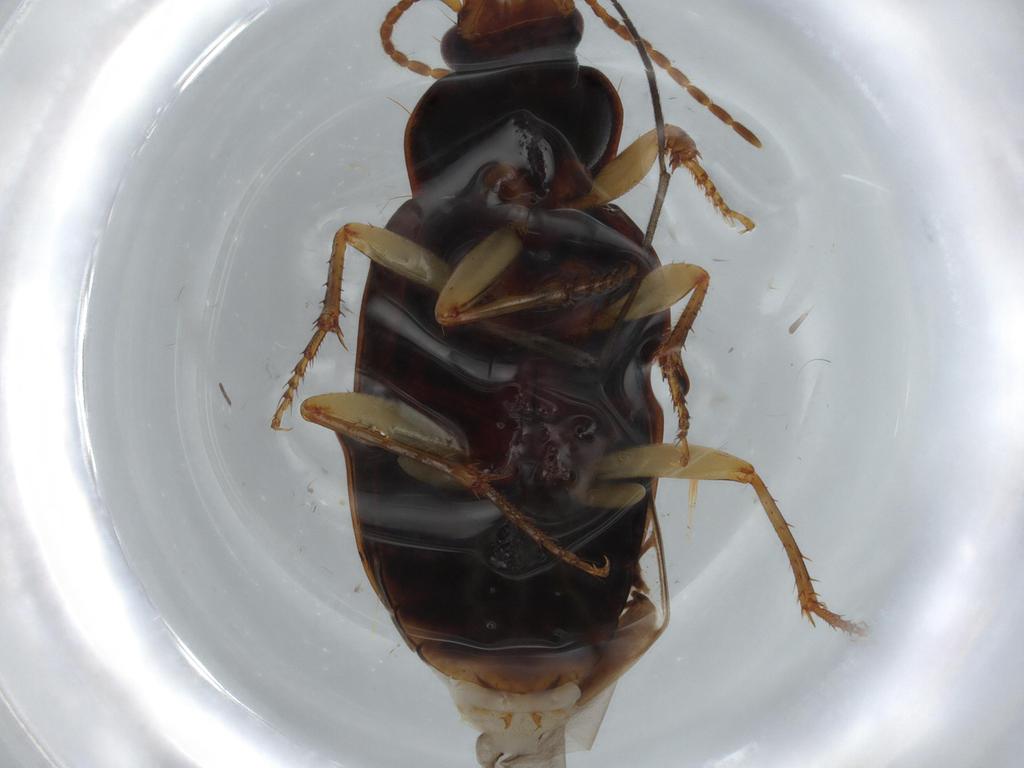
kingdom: Animalia
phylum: Arthropoda
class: Insecta
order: Coleoptera
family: Carabidae
